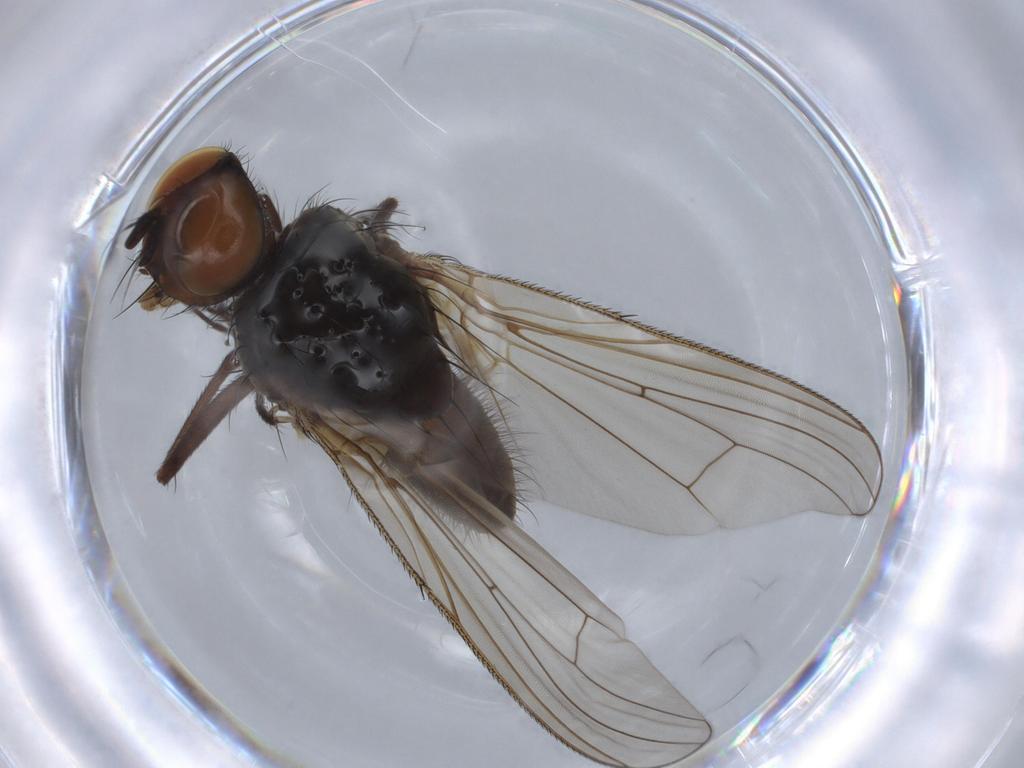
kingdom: Animalia
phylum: Arthropoda
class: Insecta
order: Diptera
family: Anthomyiidae
